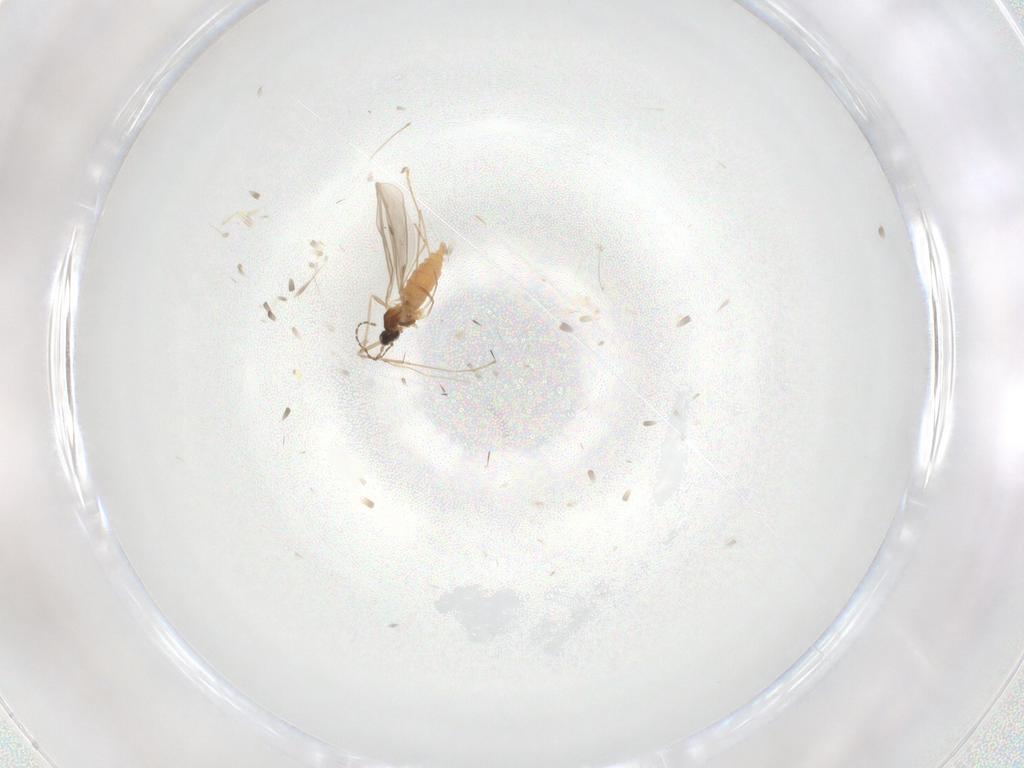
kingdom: Animalia
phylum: Arthropoda
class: Insecta
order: Diptera
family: Cecidomyiidae
